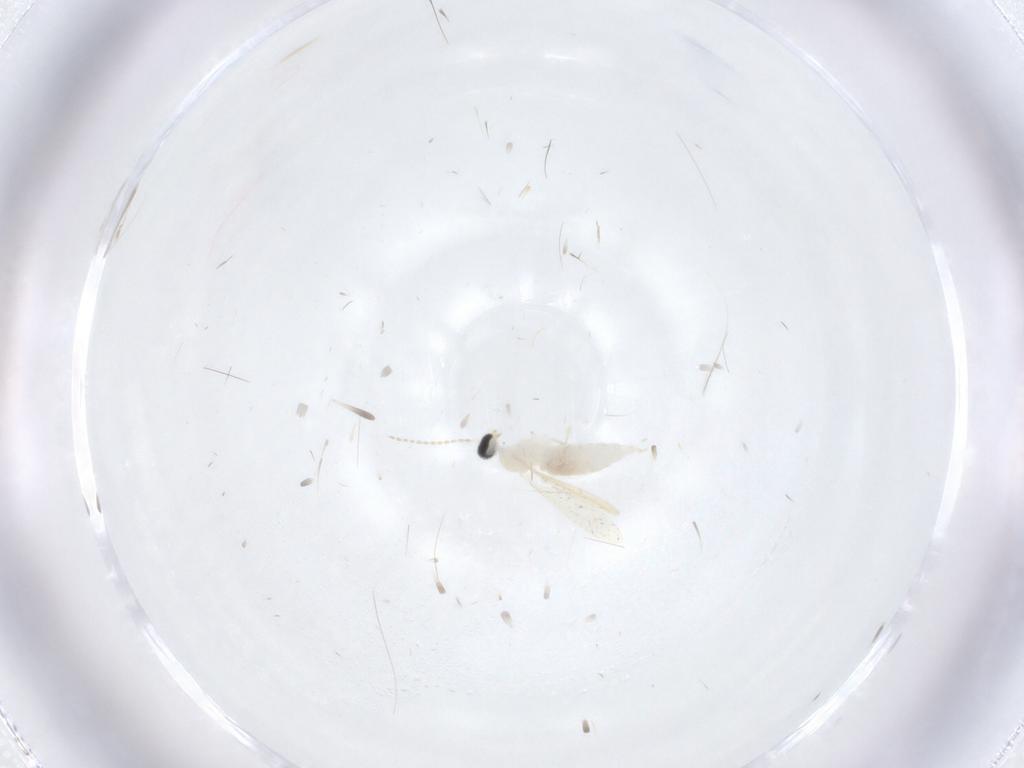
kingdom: Animalia
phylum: Arthropoda
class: Insecta
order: Diptera
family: Cecidomyiidae
